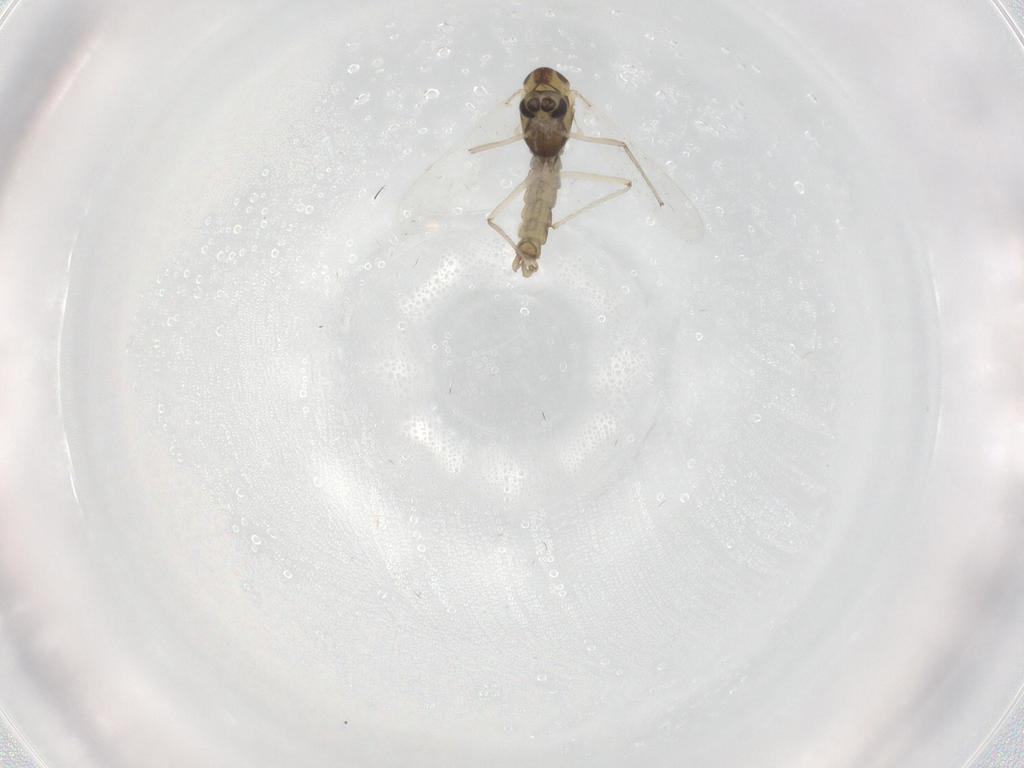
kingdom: Animalia
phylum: Arthropoda
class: Insecta
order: Diptera
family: Chironomidae
